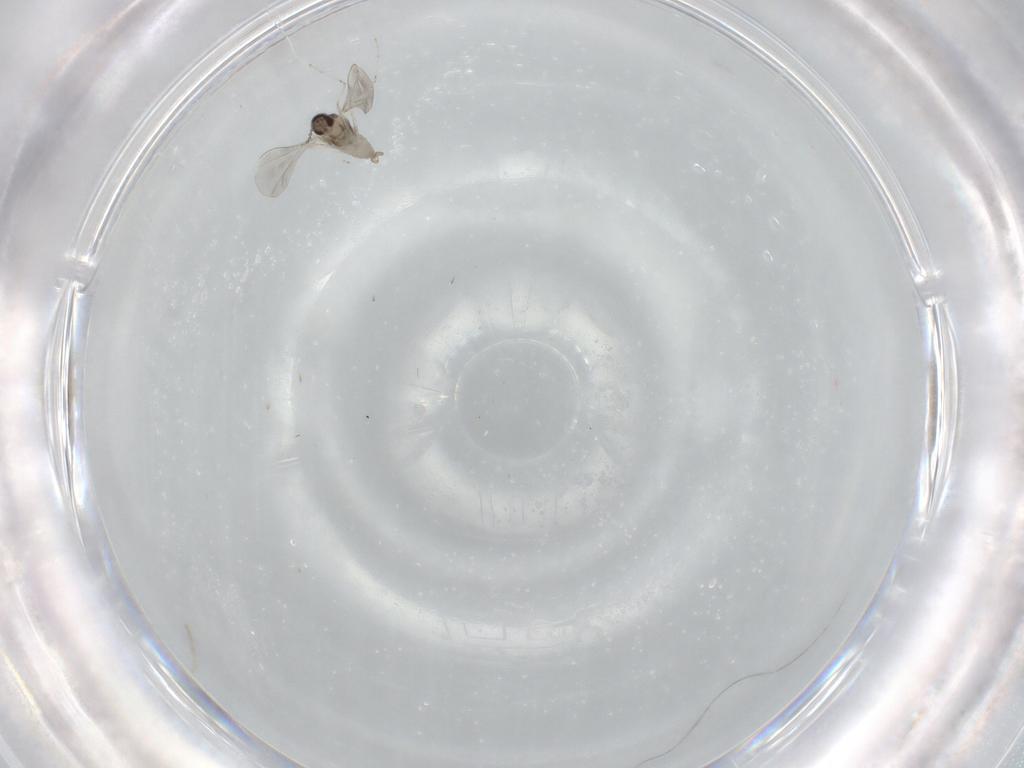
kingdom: Animalia
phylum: Arthropoda
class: Insecta
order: Diptera
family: Cecidomyiidae
